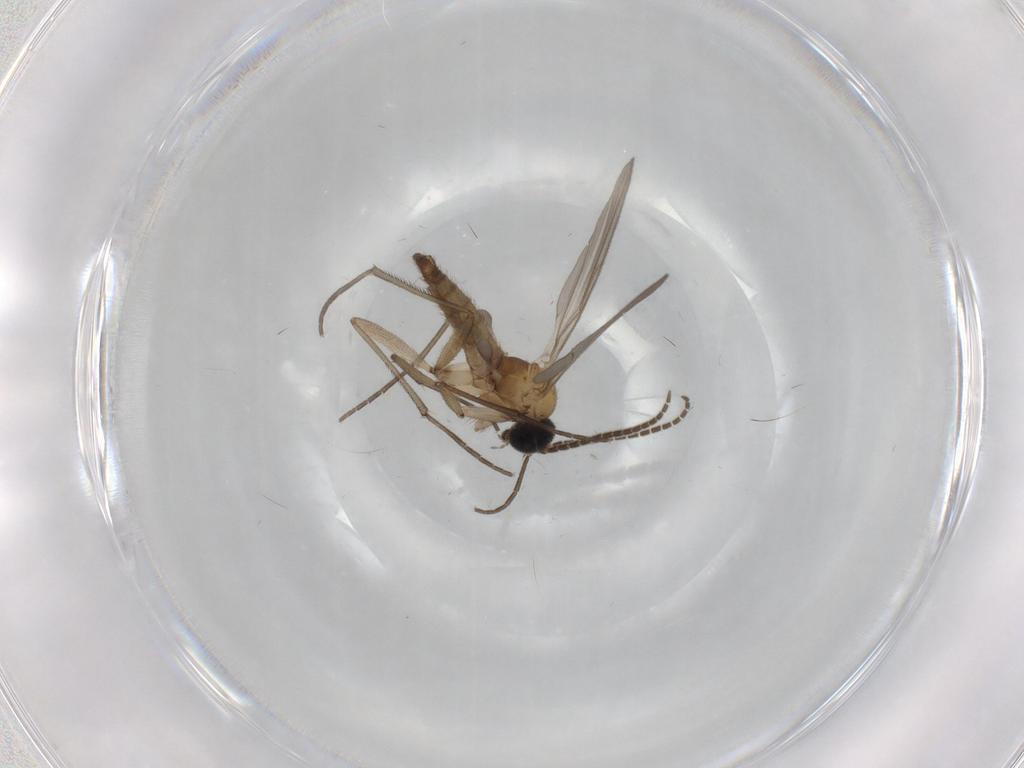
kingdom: Animalia
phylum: Arthropoda
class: Insecta
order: Diptera
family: Sciaridae
